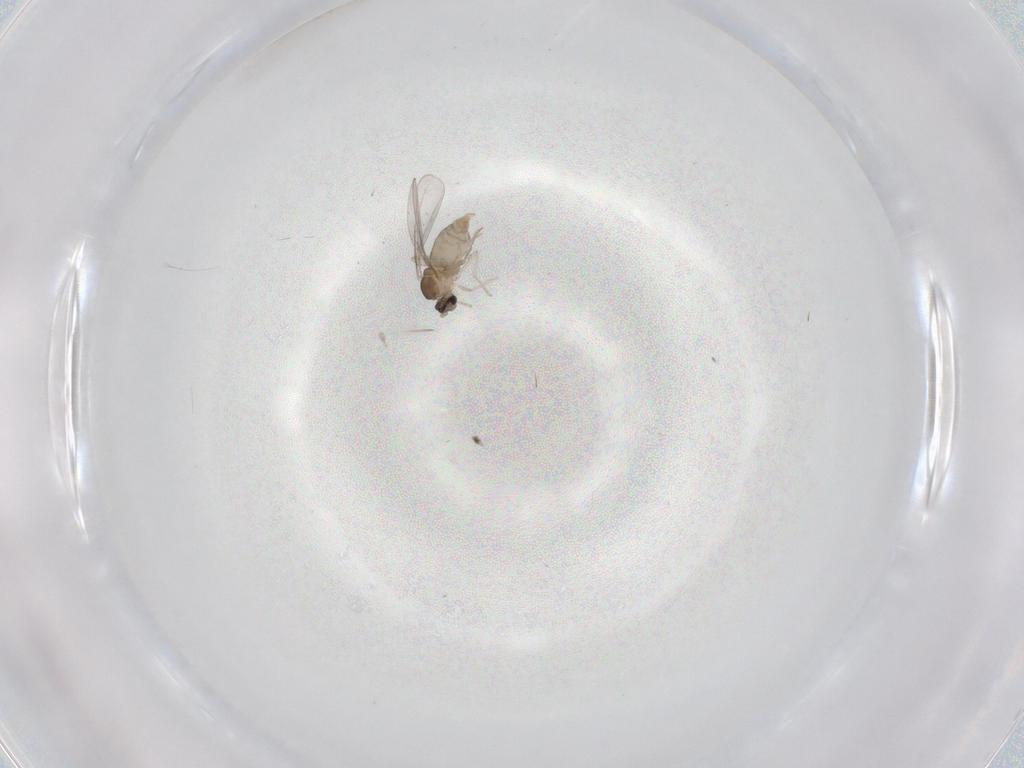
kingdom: Animalia
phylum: Arthropoda
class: Insecta
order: Diptera
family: Cecidomyiidae
